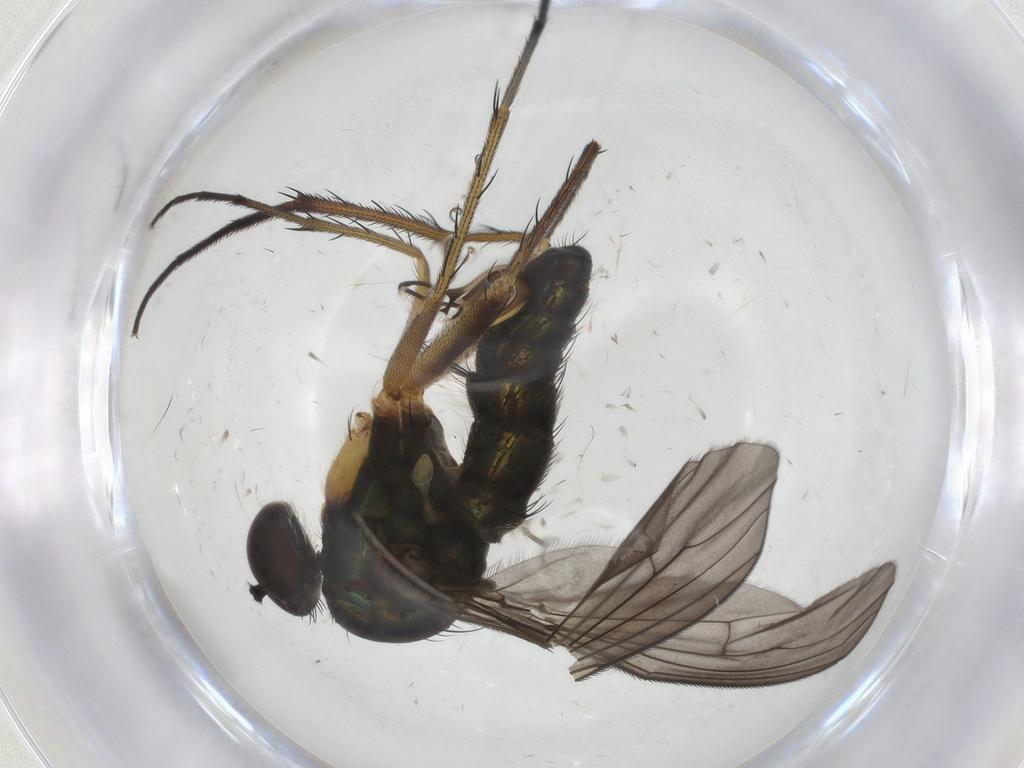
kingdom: Animalia
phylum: Arthropoda
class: Insecta
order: Diptera
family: Dolichopodidae
